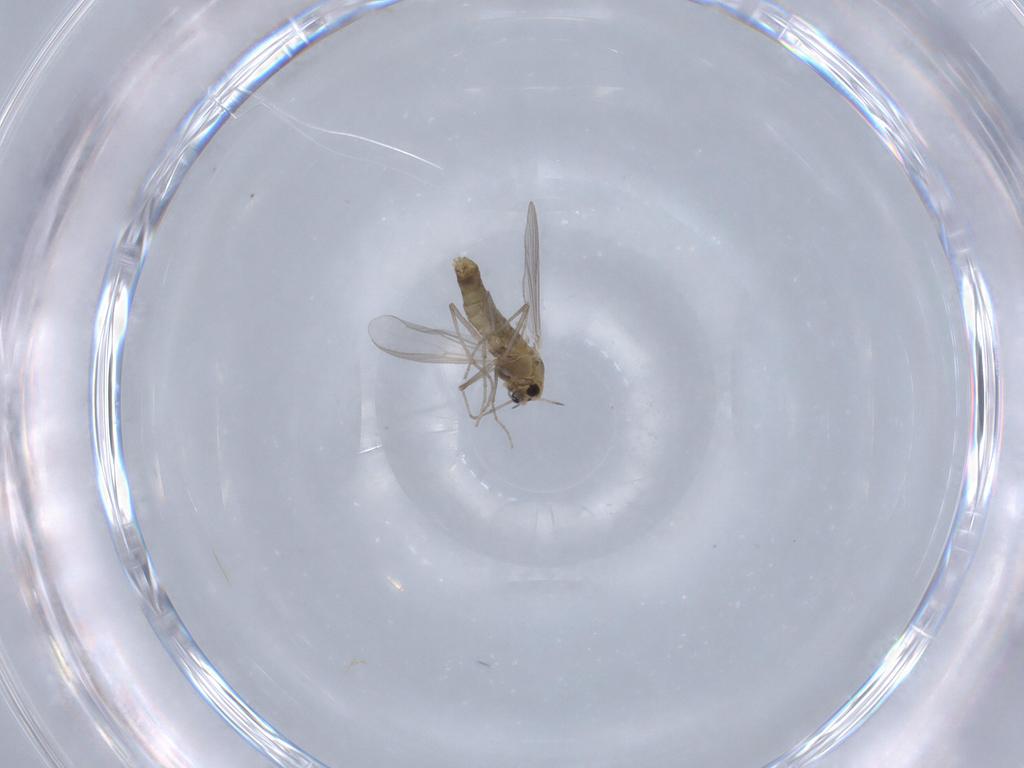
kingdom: Animalia
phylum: Arthropoda
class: Insecta
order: Diptera
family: Chironomidae
